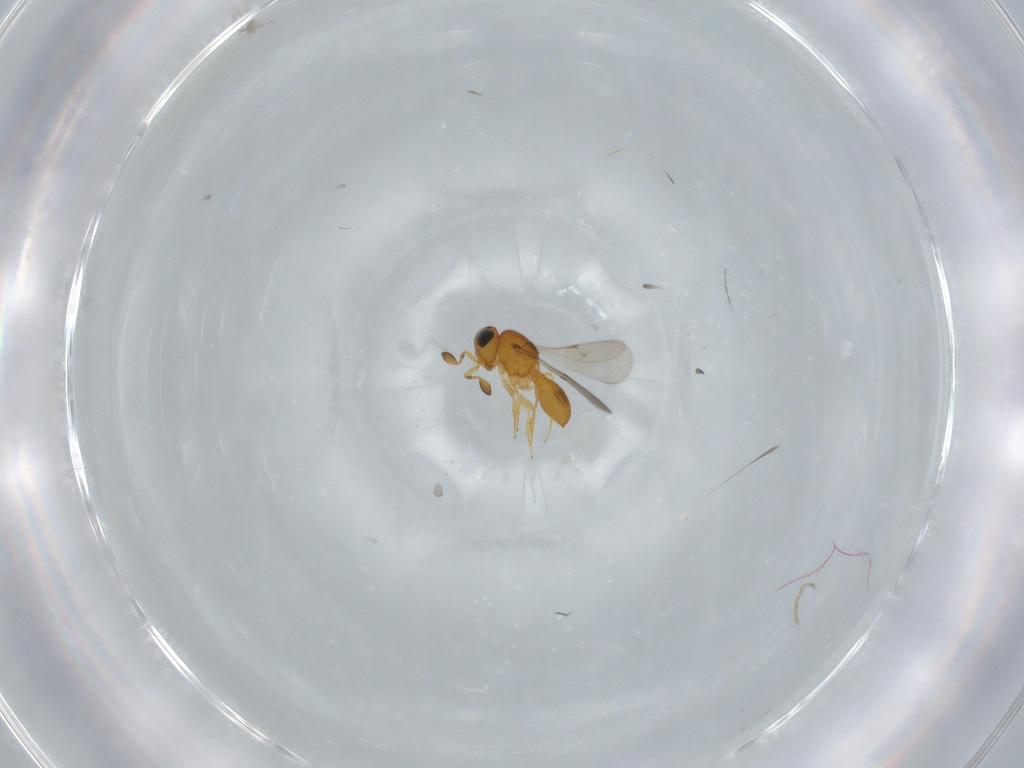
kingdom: Animalia
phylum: Arthropoda
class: Insecta
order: Hymenoptera
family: Scelionidae
